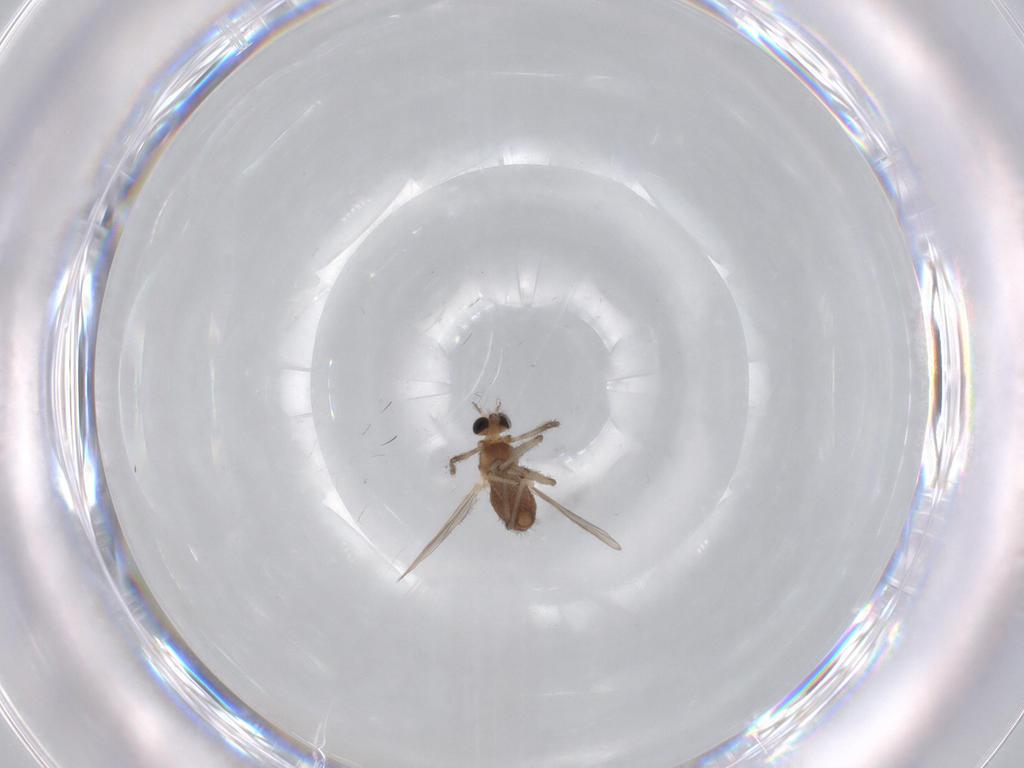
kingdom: Animalia
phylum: Arthropoda
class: Insecta
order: Diptera
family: Chironomidae
